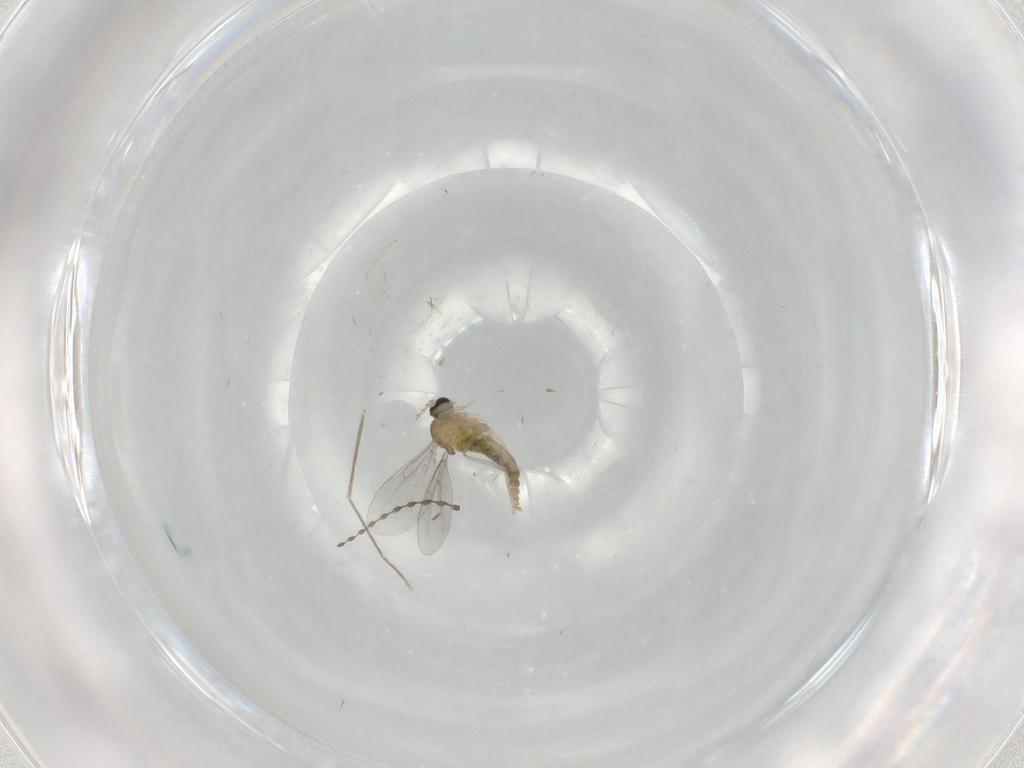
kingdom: Animalia
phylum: Arthropoda
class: Insecta
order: Diptera
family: Cecidomyiidae
